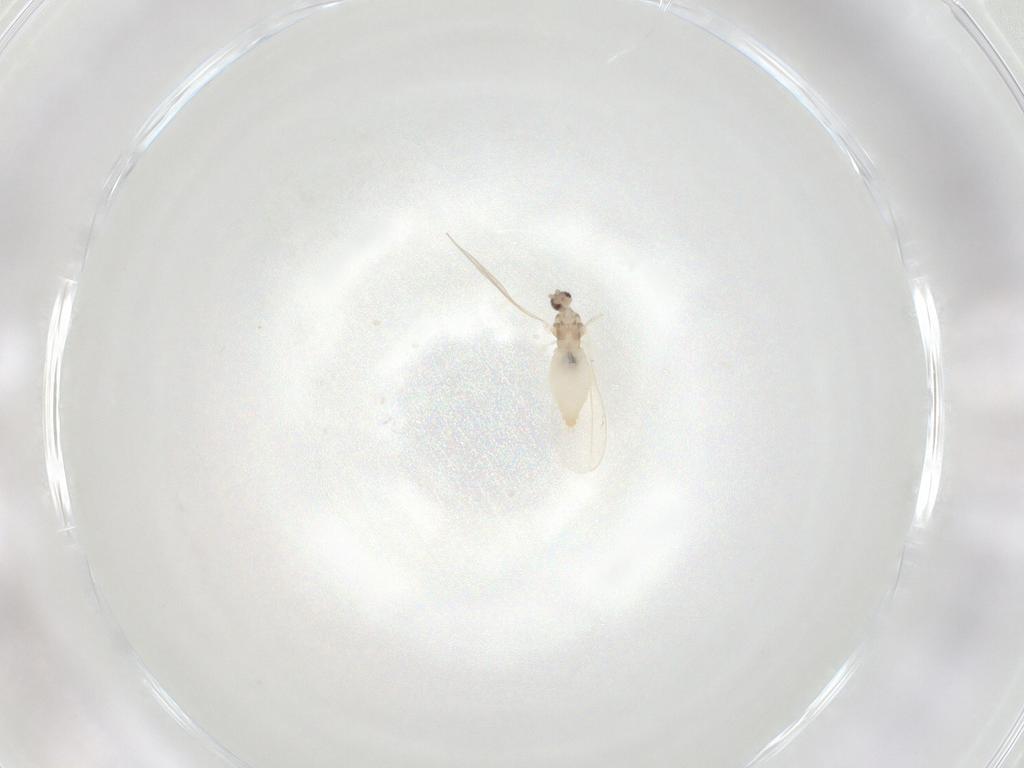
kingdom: Animalia
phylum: Arthropoda
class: Insecta
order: Diptera
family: Cecidomyiidae
